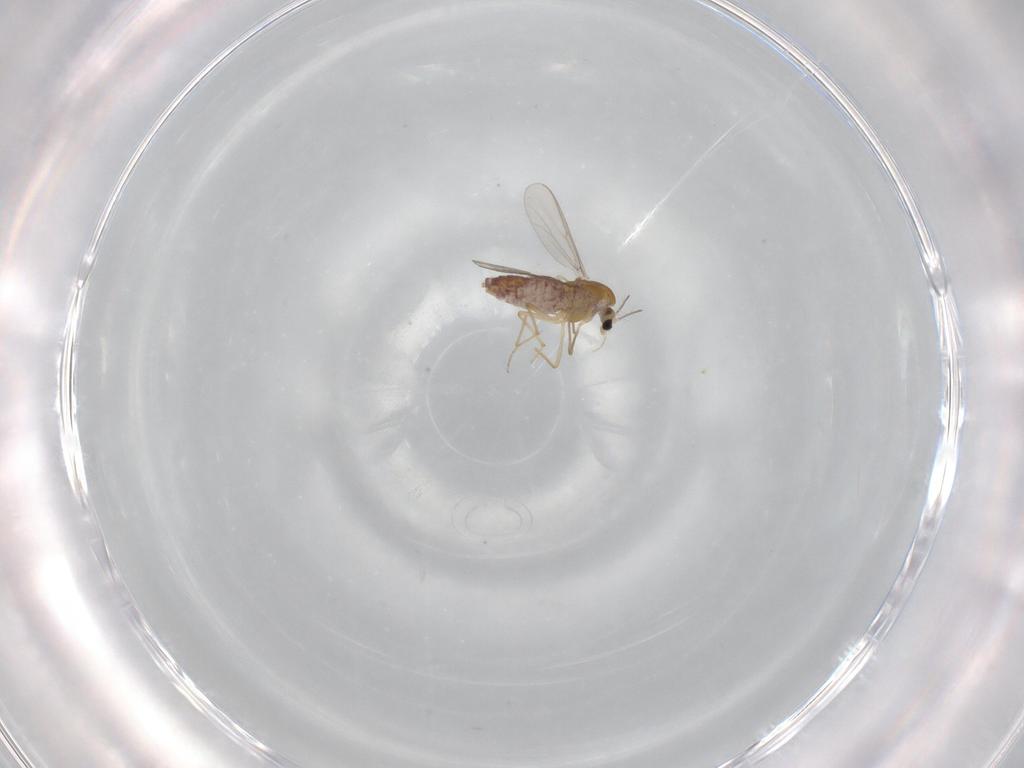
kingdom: Animalia
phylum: Arthropoda
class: Insecta
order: Diptera
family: Chironomidae
